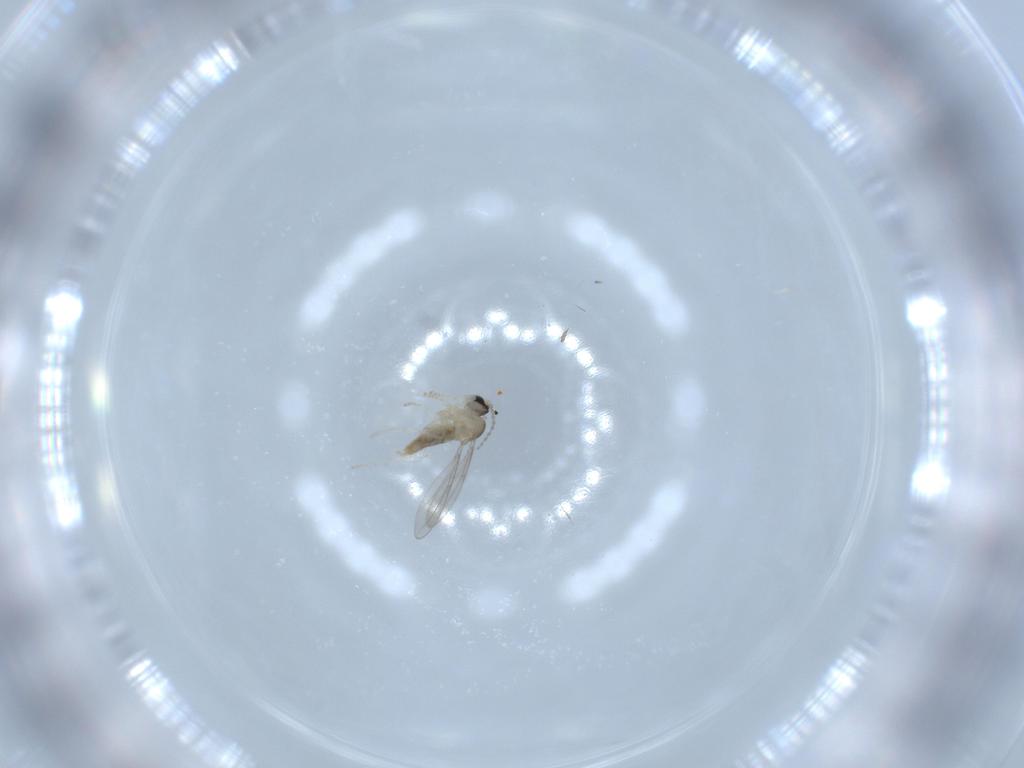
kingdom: Animalia
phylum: Arthropoda
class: Insecta
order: Diptera
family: Cecidomyiidae
